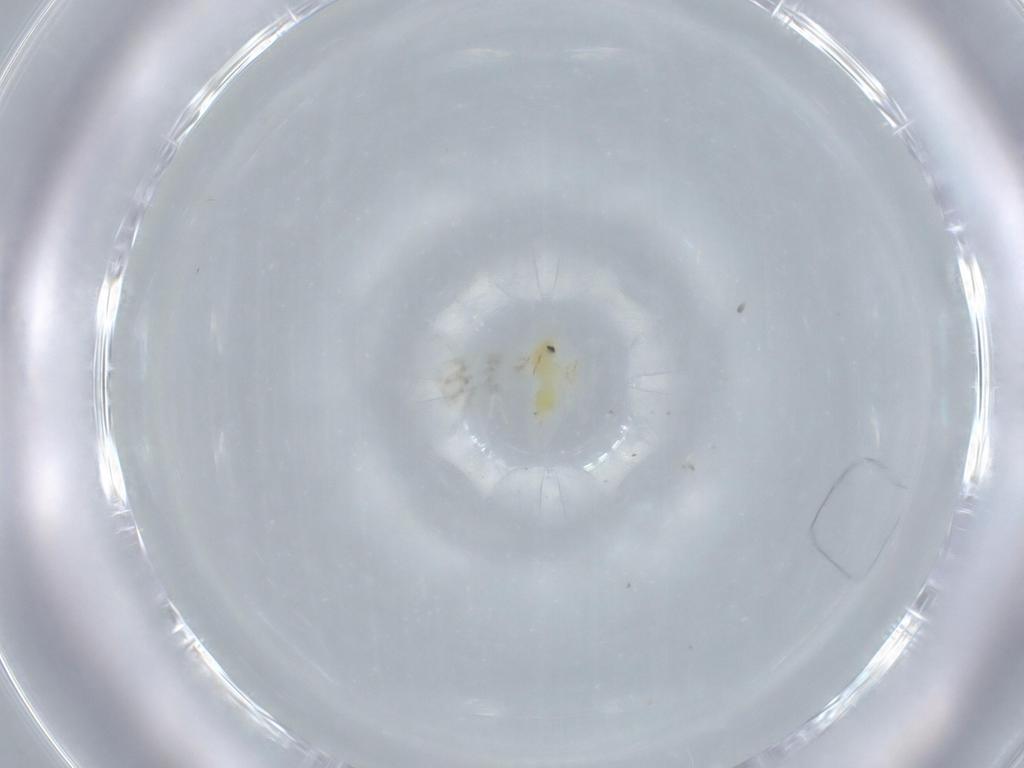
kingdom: Animalia
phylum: Arthropoda
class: Insecta
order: Hemiptera
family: Aleyrodidae
